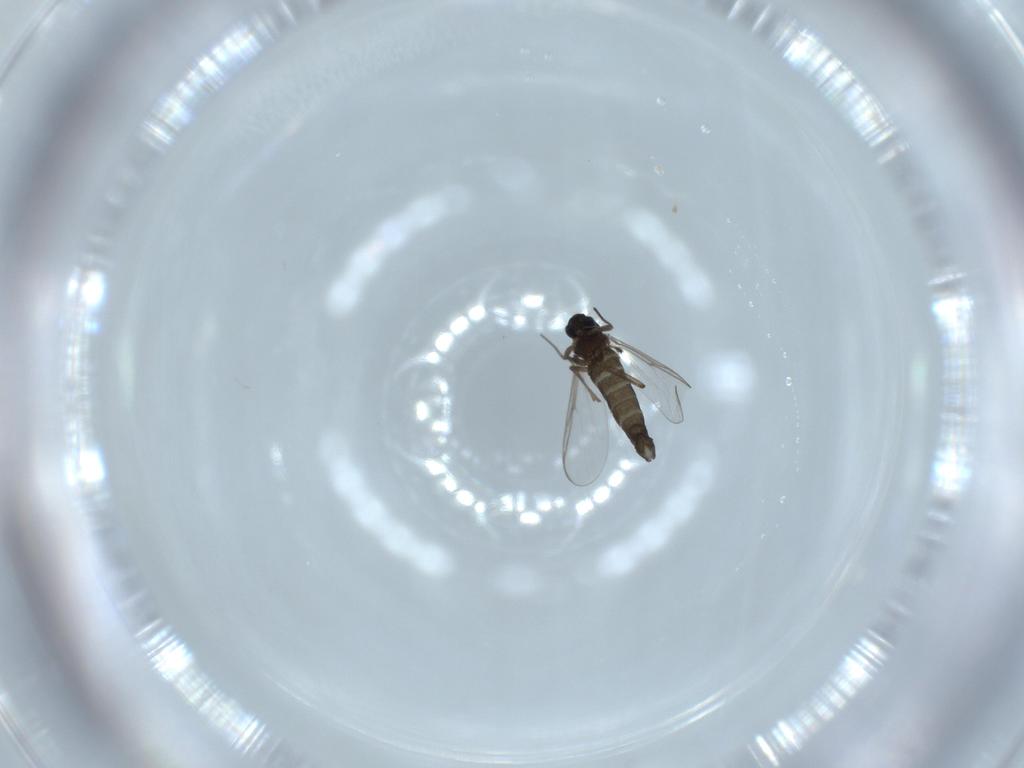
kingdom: Animalia
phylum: Arthropoda
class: Insecta
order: Diptera
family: Chironomidae
